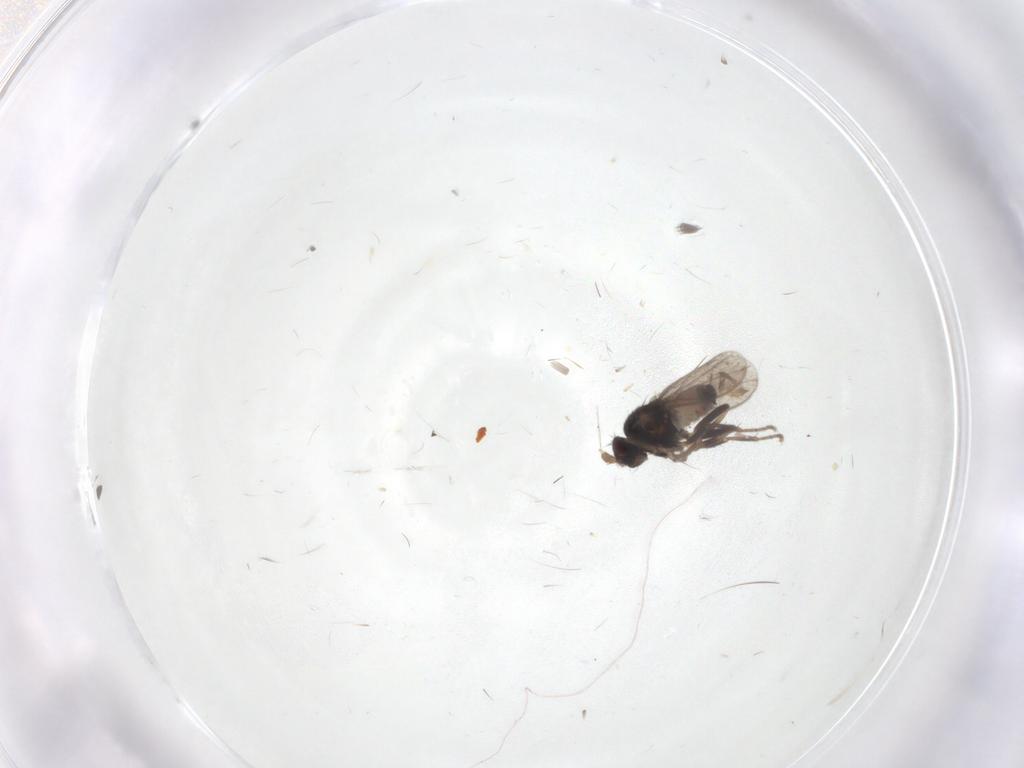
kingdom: Animalia
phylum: Arthropoda
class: Insecta
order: Diptera
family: Sphaeroceridae
